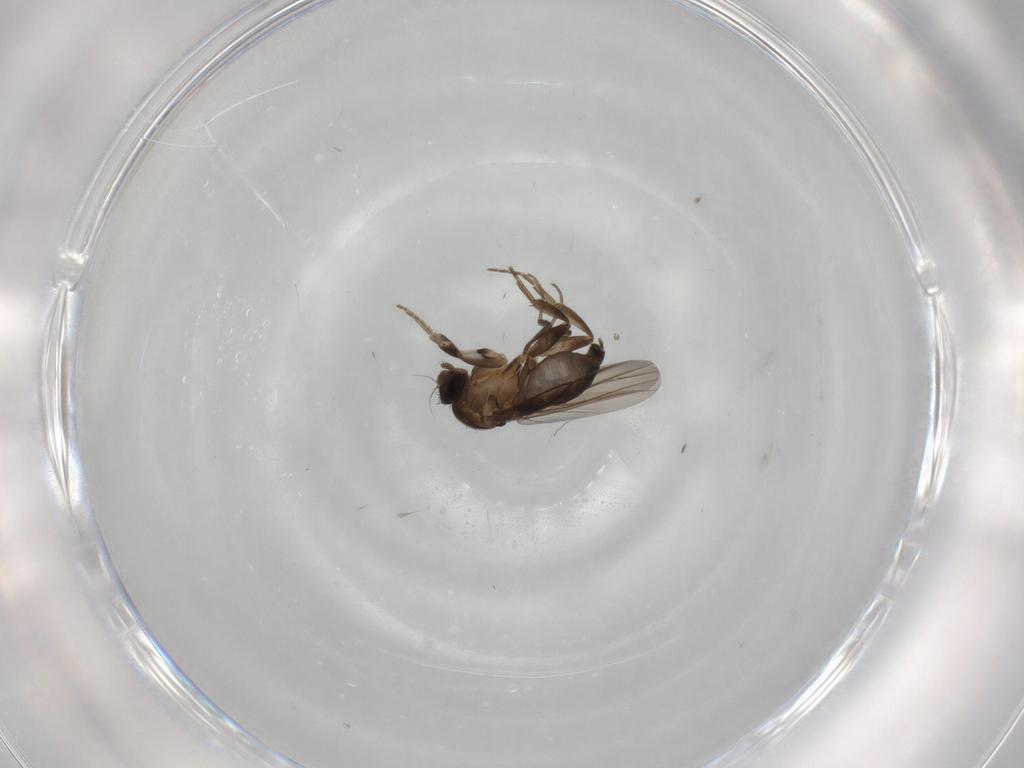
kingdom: Animalia
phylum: Arthropoda
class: Insecta
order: Diptera
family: Phoridae
